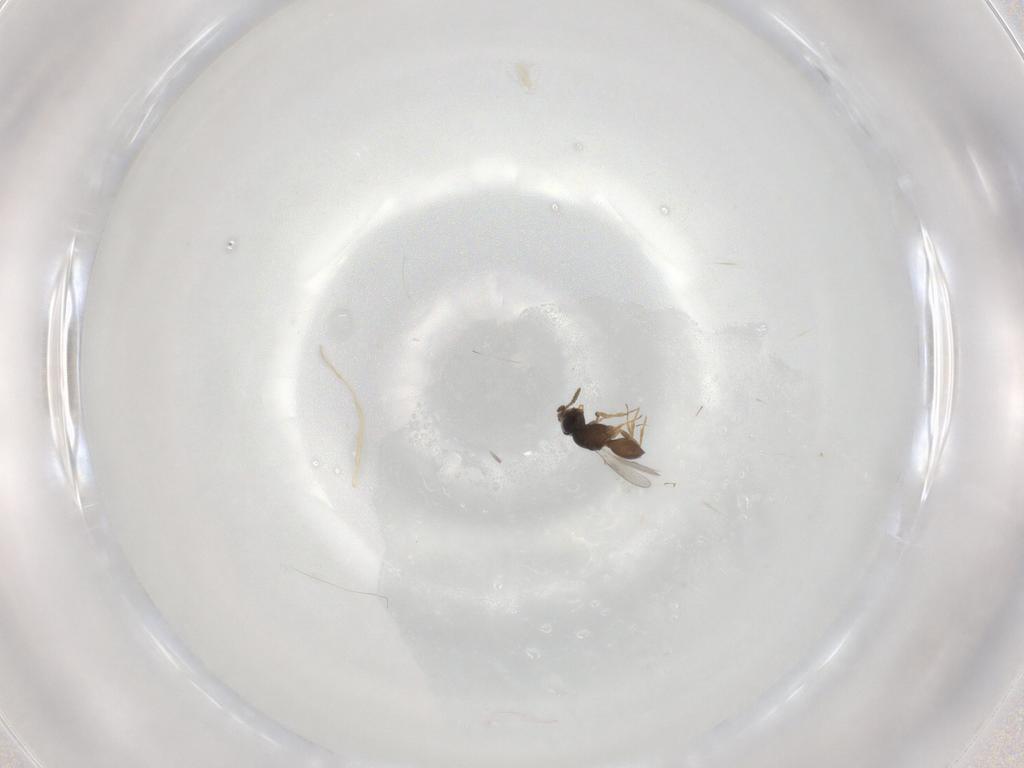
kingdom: Animalia
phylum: Arthropoda
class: Insecta
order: Hymenoptera
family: Scelionidae
